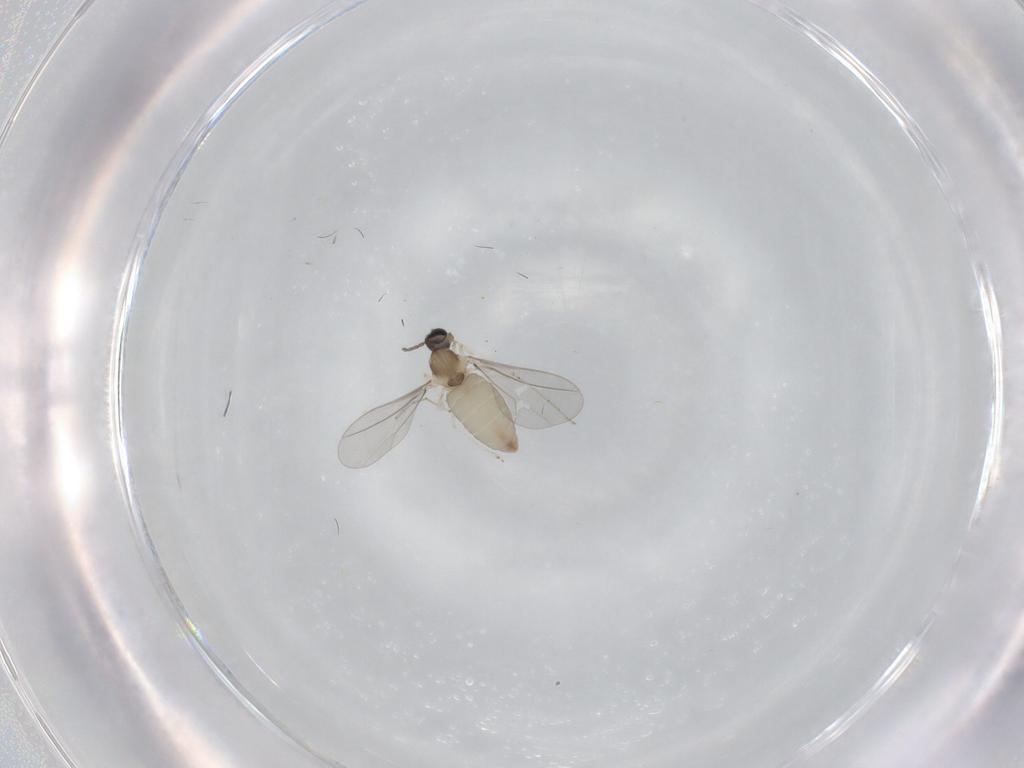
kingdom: Animalia
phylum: Arthropoda
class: Insecta
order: Diptera
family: Cecidomyiidae
